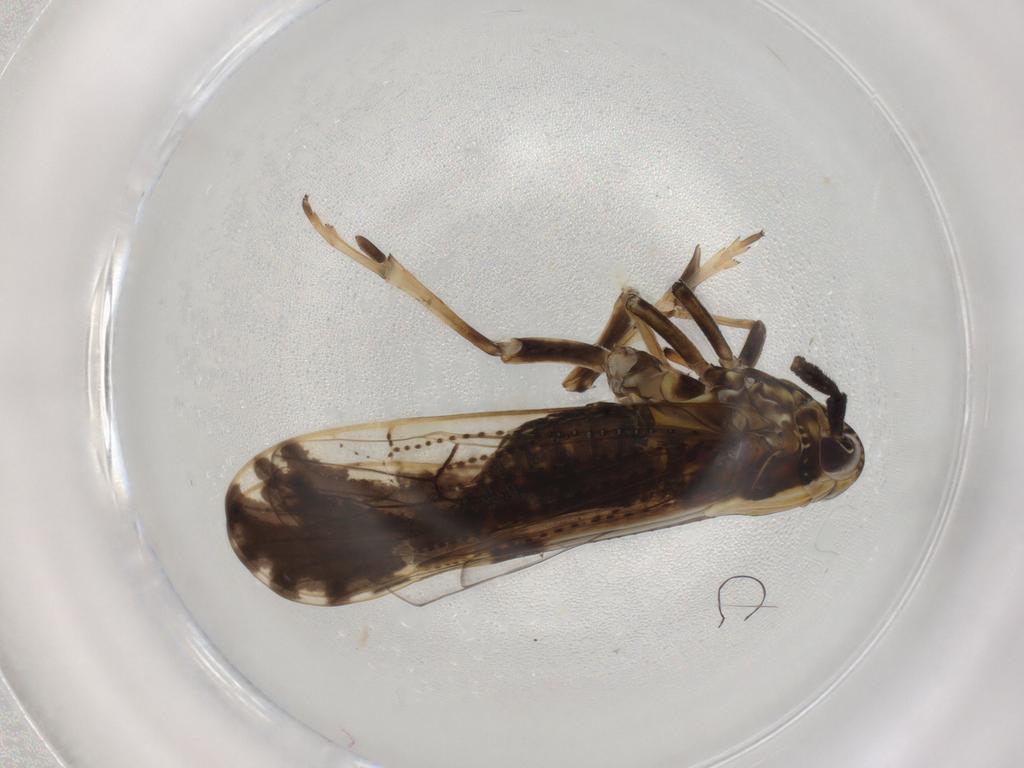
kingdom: Animalia
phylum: Arthropoda
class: Insecta
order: Hemiptera
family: Delphacidae
